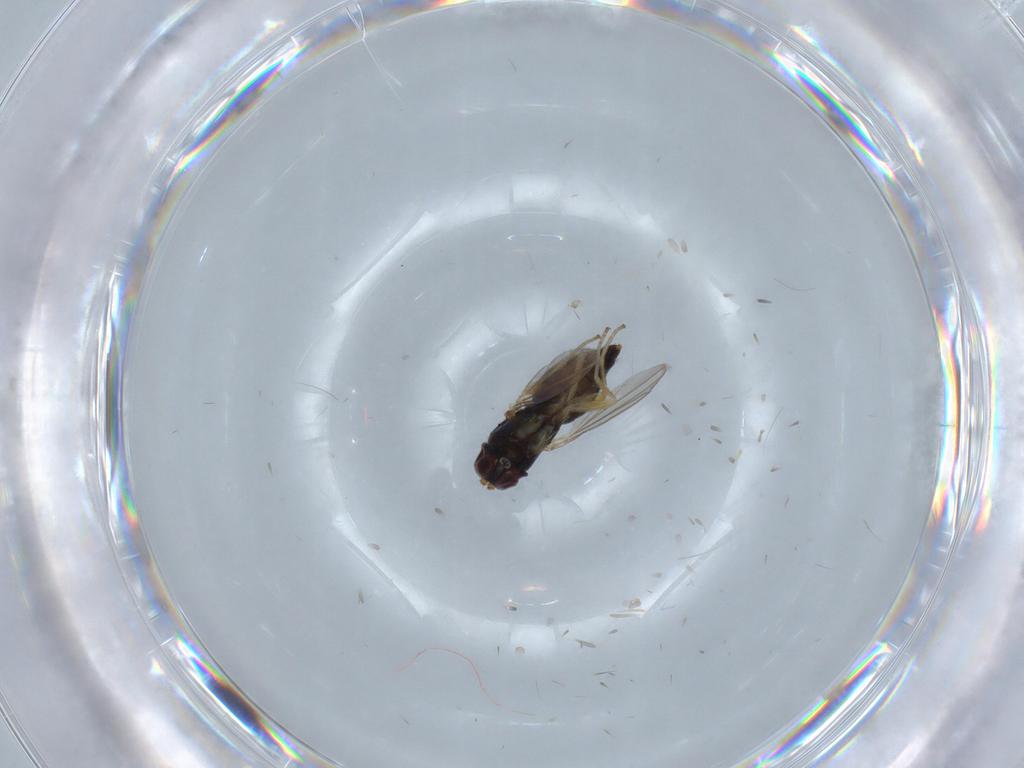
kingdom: Animalia
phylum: Arthropoda
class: Insecta
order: Diptera
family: Dolichopodidae
